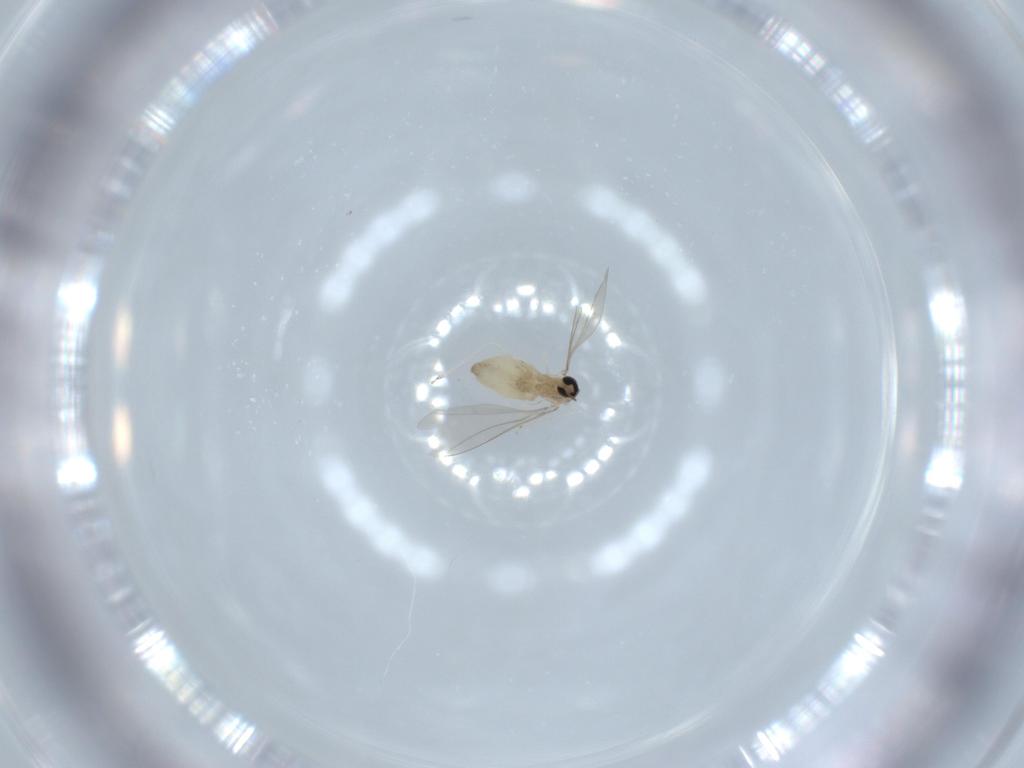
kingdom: Animalia
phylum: Arthropoda
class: Insecta
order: Diptera
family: Cecidomyiidae
